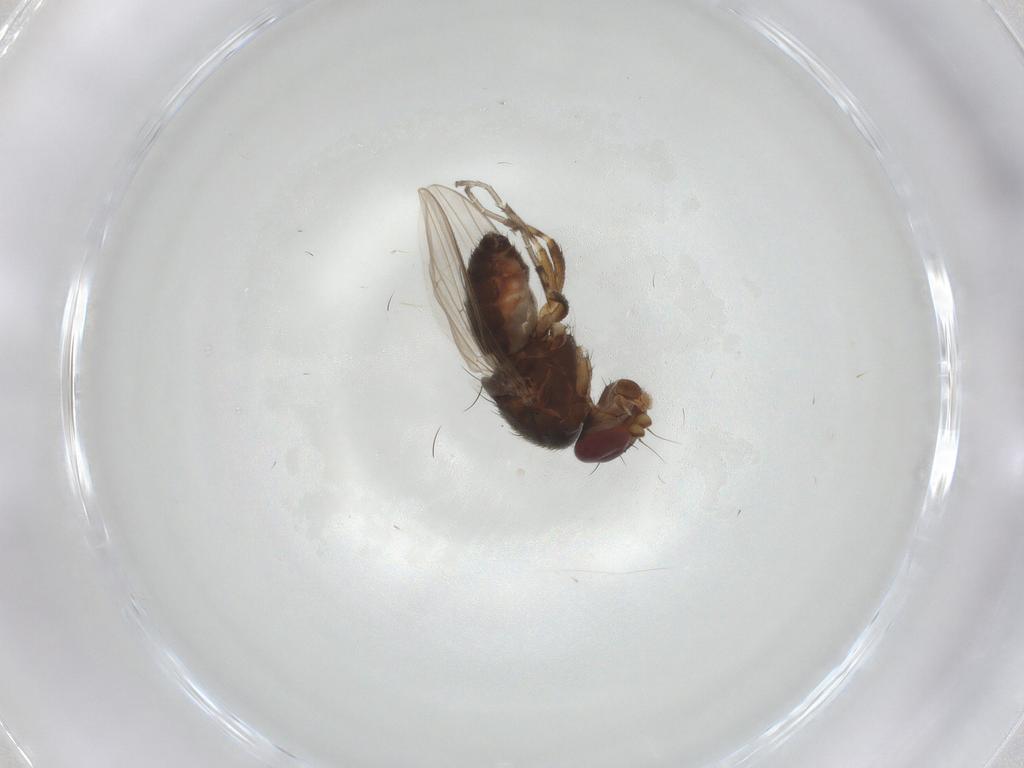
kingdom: Animalia
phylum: Arthropoda
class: Insecta
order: Diptera
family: Heleomyzidae
